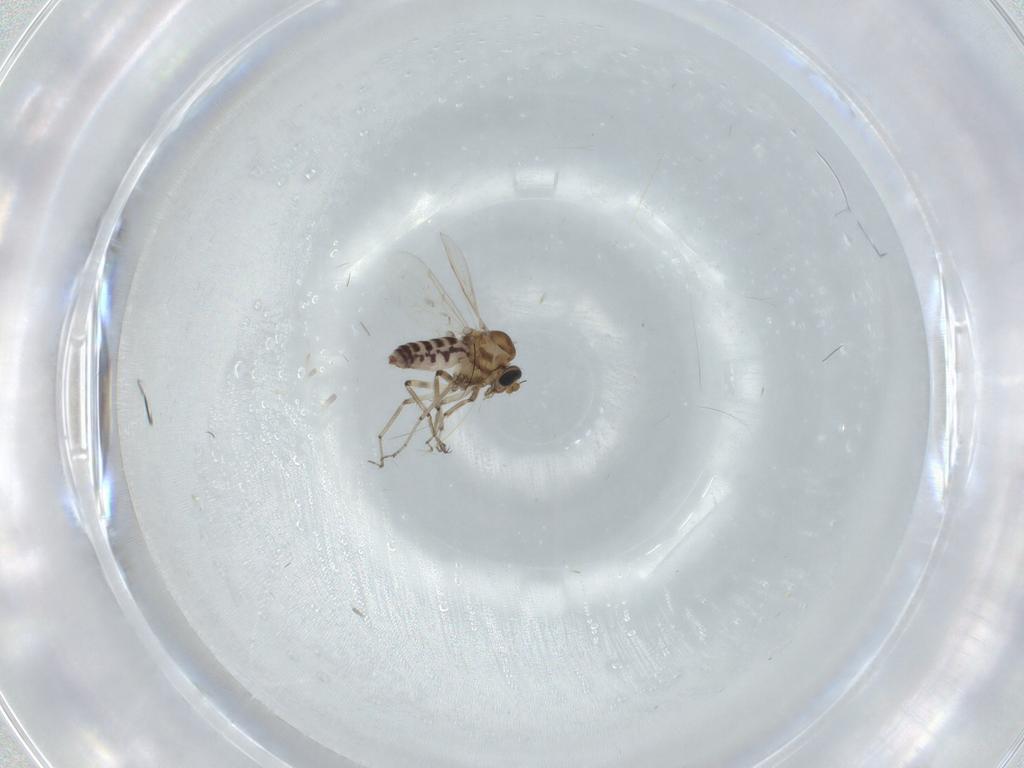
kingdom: Animalia
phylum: Arthropoda
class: Insecta
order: Diptera
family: Ceratopogonidae
